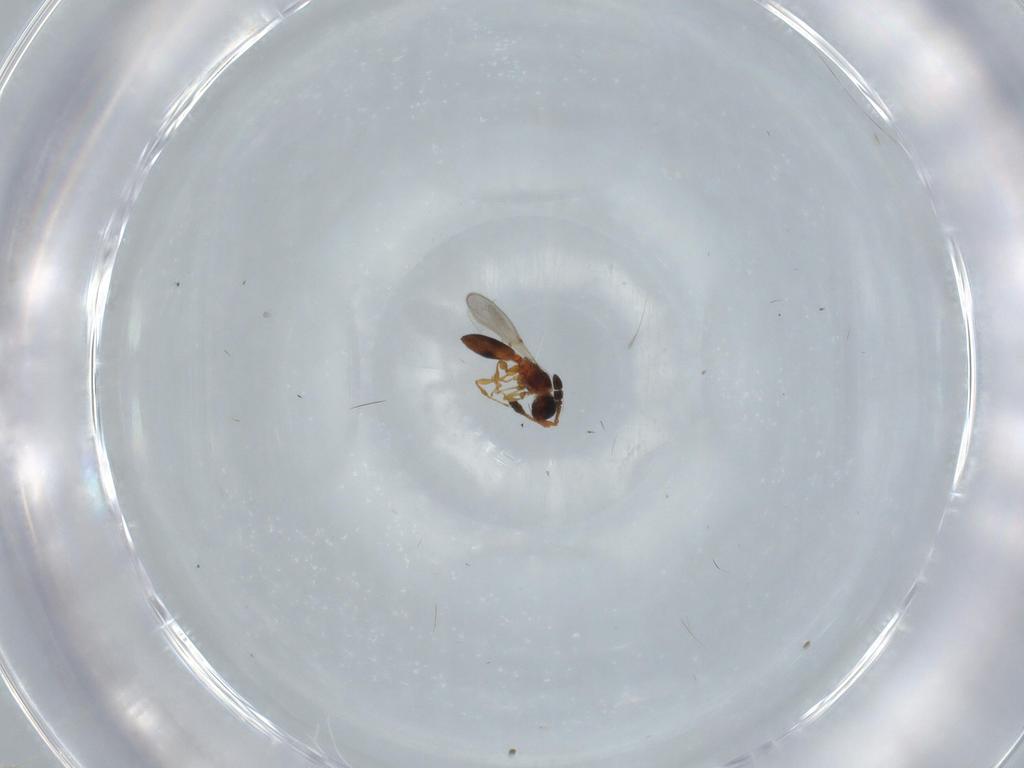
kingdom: Animalia
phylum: Arthropoda
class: Insecta
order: Hymenoptera
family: Diapriidae
